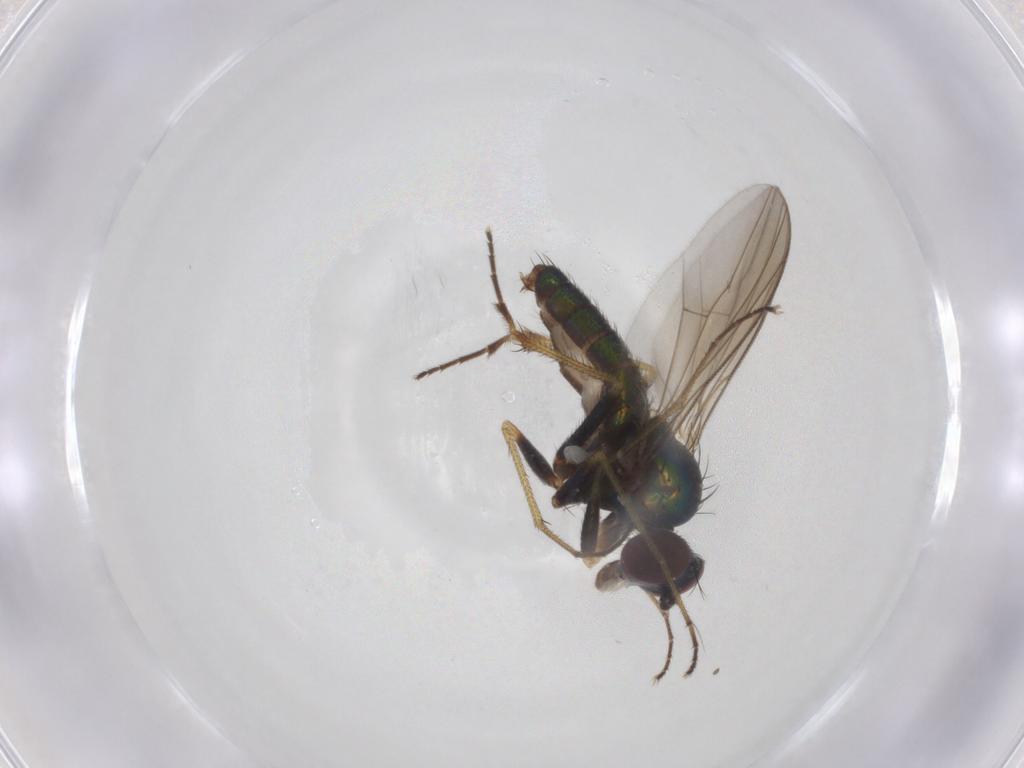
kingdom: Animalia
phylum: Arthropoda
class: Insecta
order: Diptera
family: Dolichopodidae
